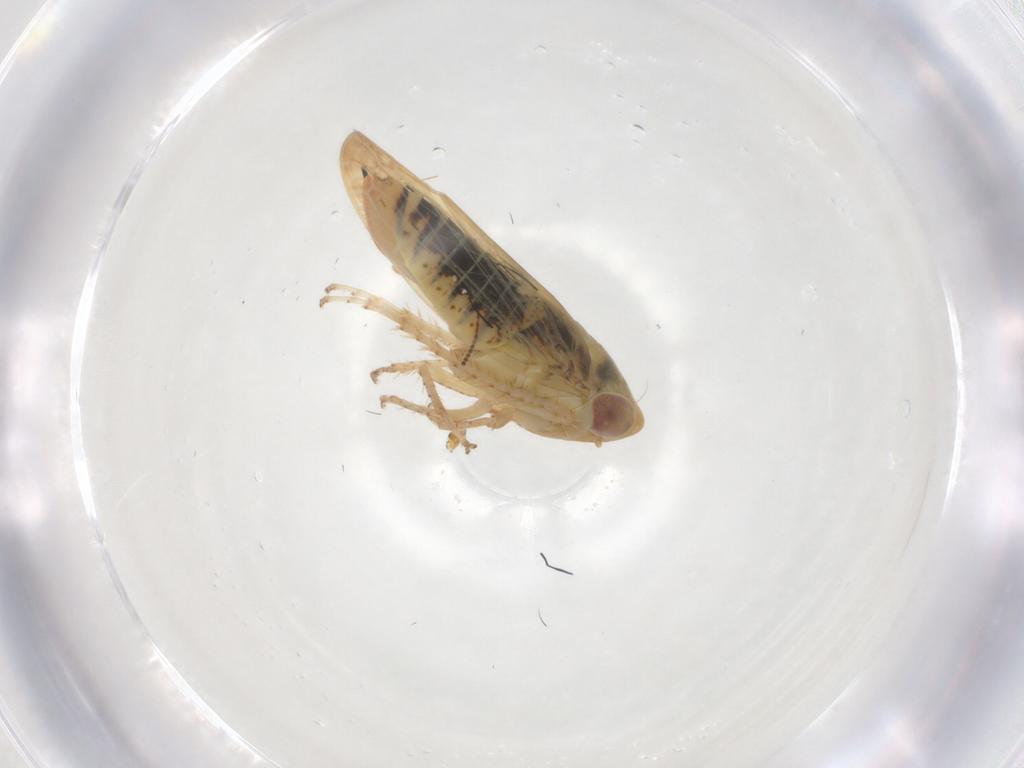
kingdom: Animalia
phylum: Arthropoda
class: Insecta
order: Hemiptera
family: Cicadellidae
